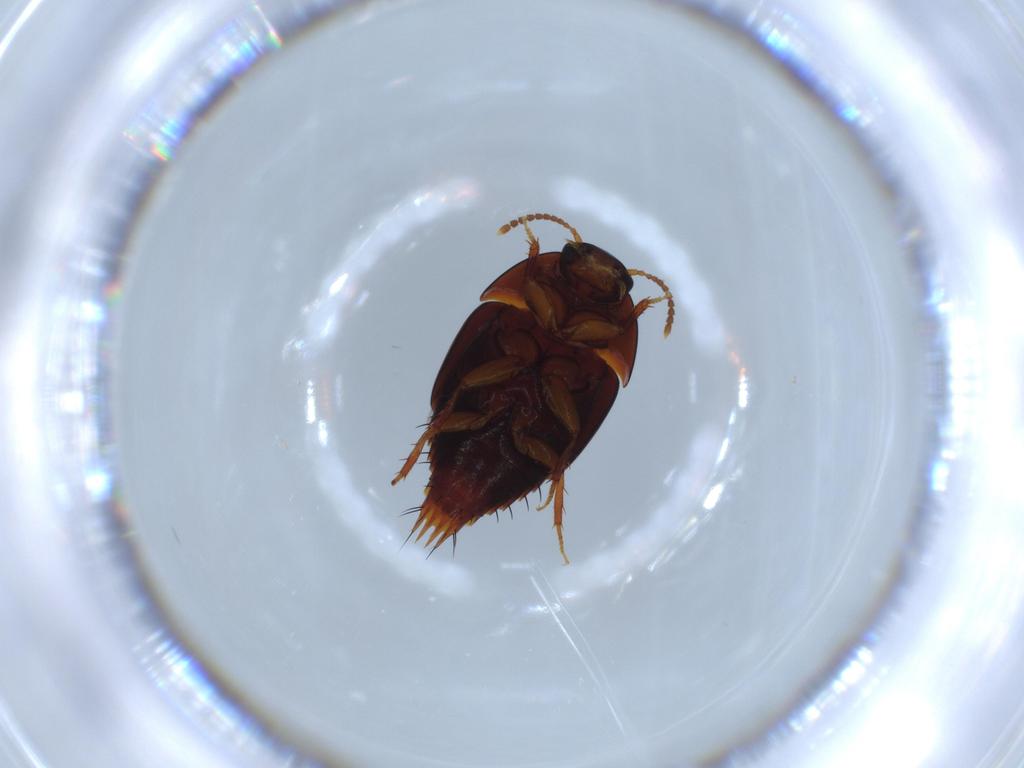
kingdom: Animalia
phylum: Arthropoda
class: Insecta
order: Coleoptera
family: Staphylinidae
